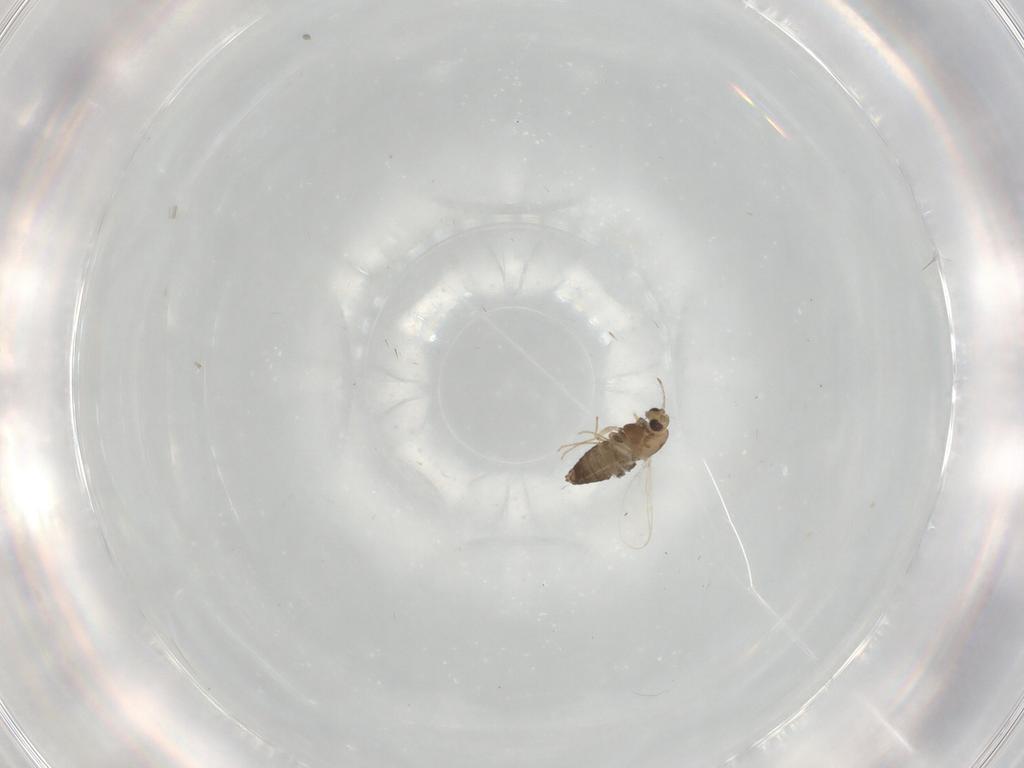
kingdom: Animalia
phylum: Arthropoda
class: Insecta
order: Diptera
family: Chironomidae
